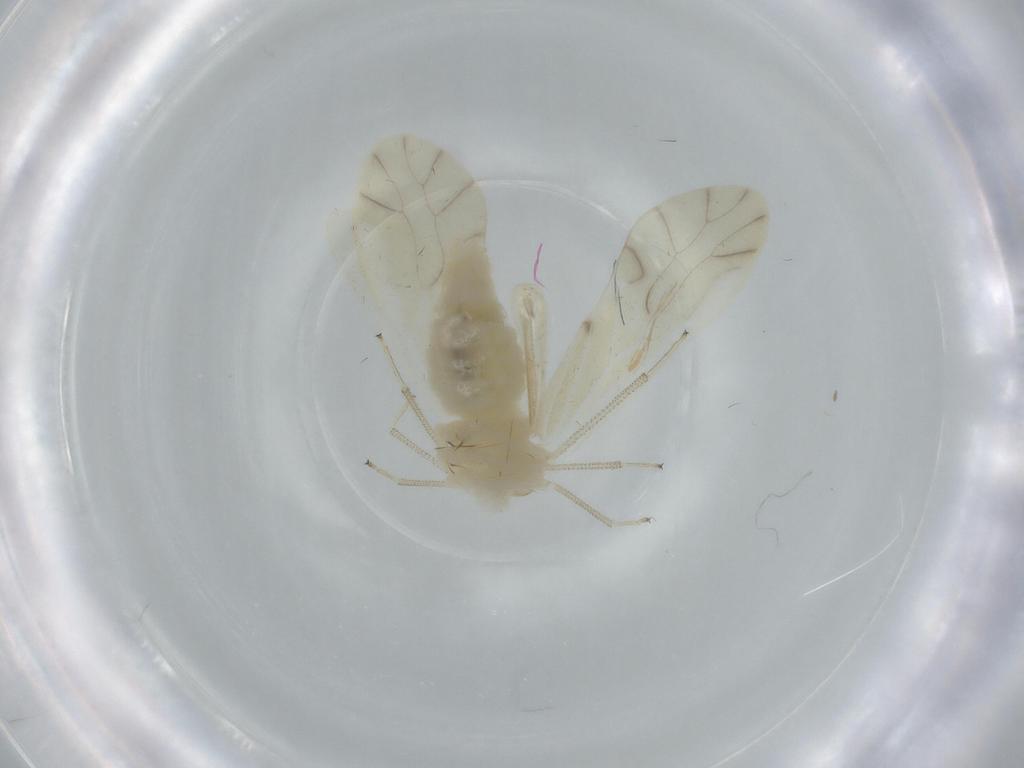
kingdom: Animalia
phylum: Arthropoda
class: Insecta
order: Psocodea
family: Caeciliusidae
